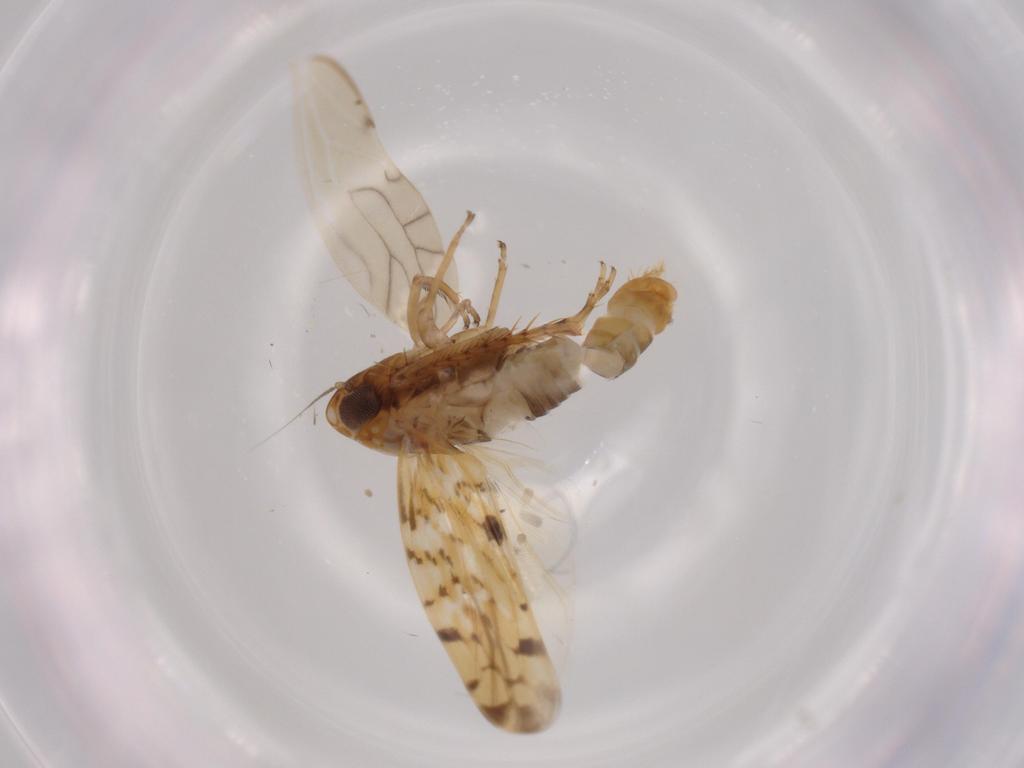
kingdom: Animalia
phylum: Arthropoda
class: Insecta
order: Hemiptera
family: Cicadellidae
